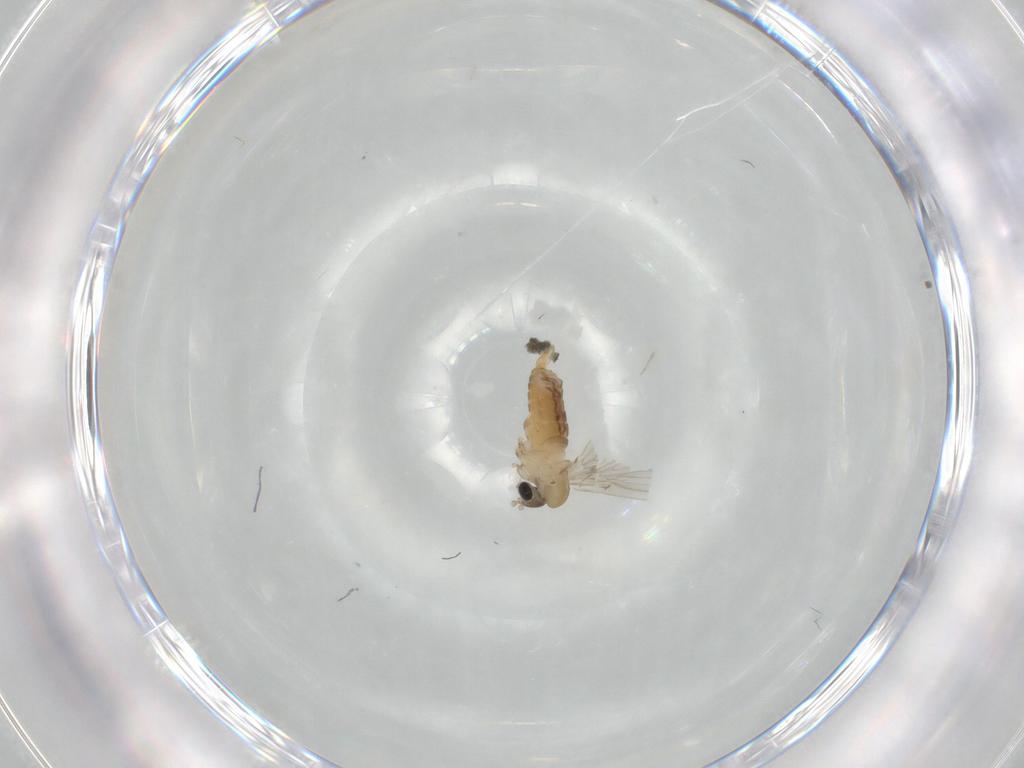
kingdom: Animalia
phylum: Arthropoda
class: Insecta
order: Diptera
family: Psychodidae
